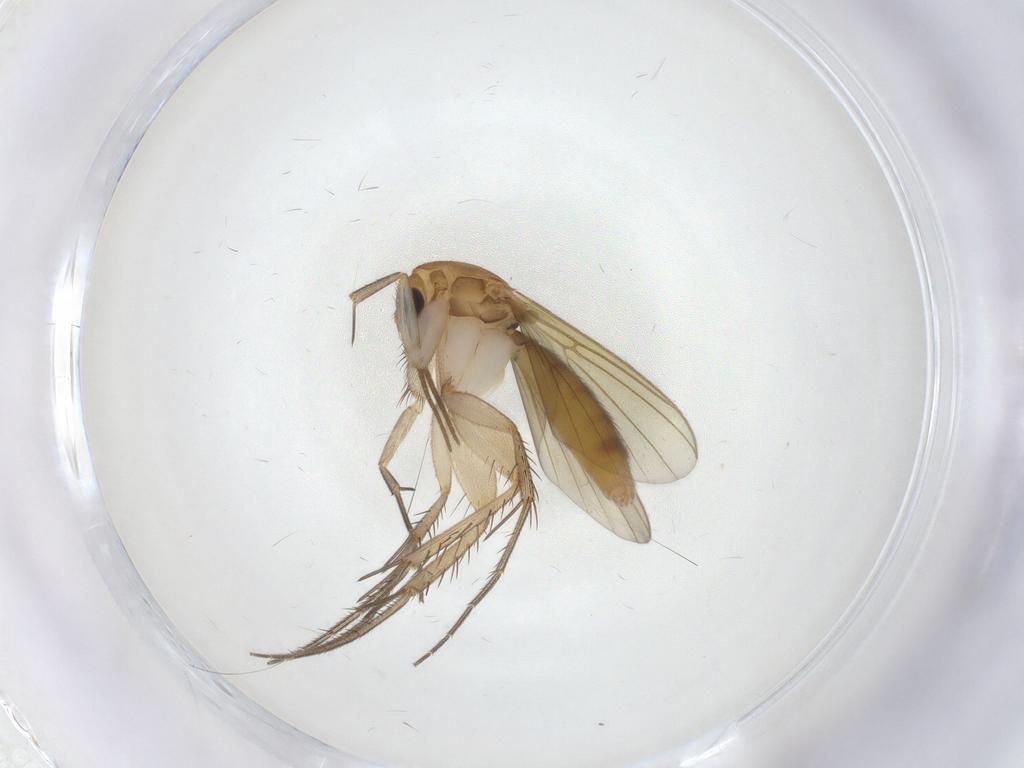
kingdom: Animalia
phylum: Arthropoda
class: Insecta
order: Diptera
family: Mycetophilidae
